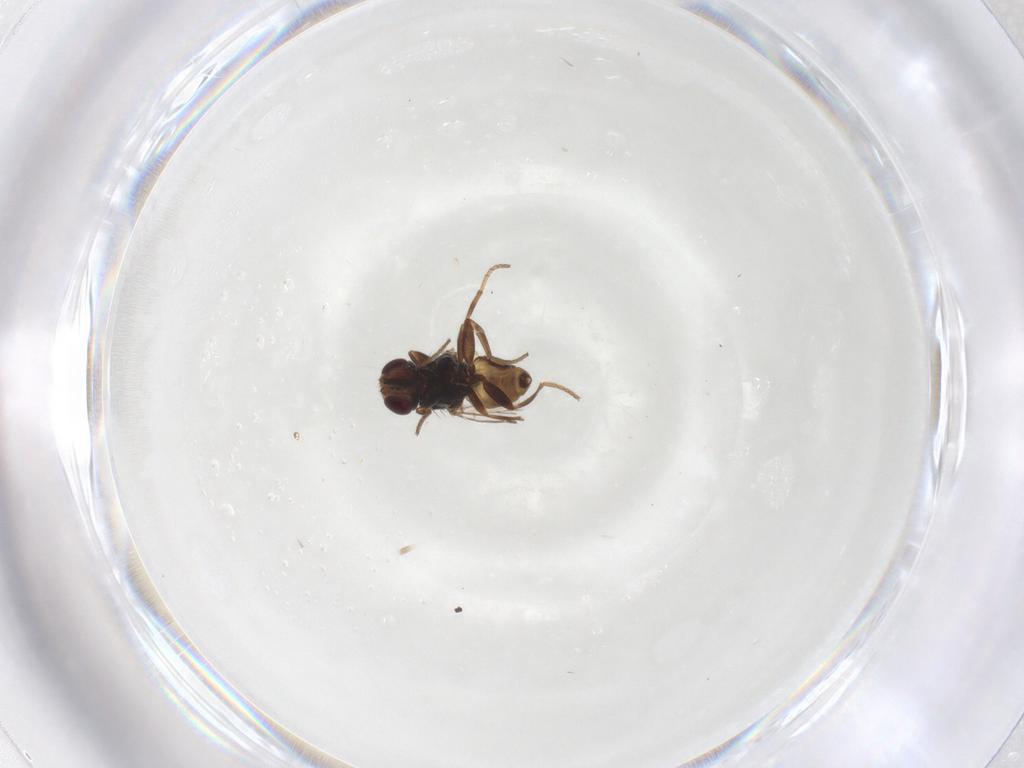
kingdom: Animalia
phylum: Arthropoda
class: Insecta
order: Diptera
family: Chloropidae
